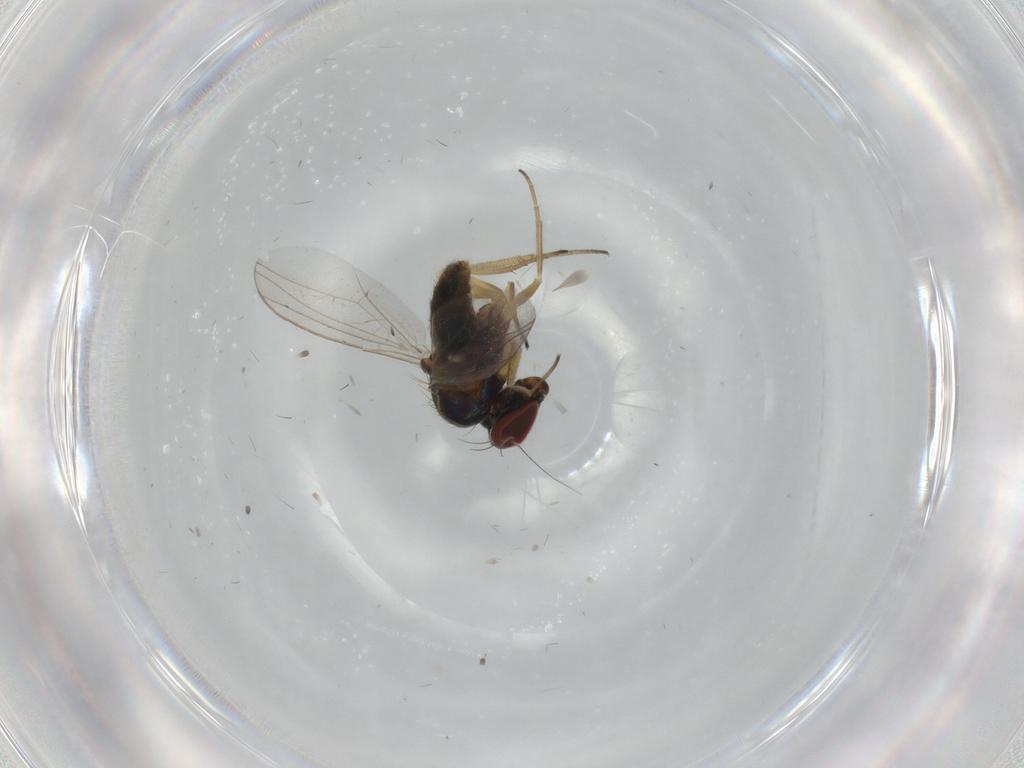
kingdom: Animalia
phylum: Arthropoda
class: Insecta
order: Diptera
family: Dolichopodidae
